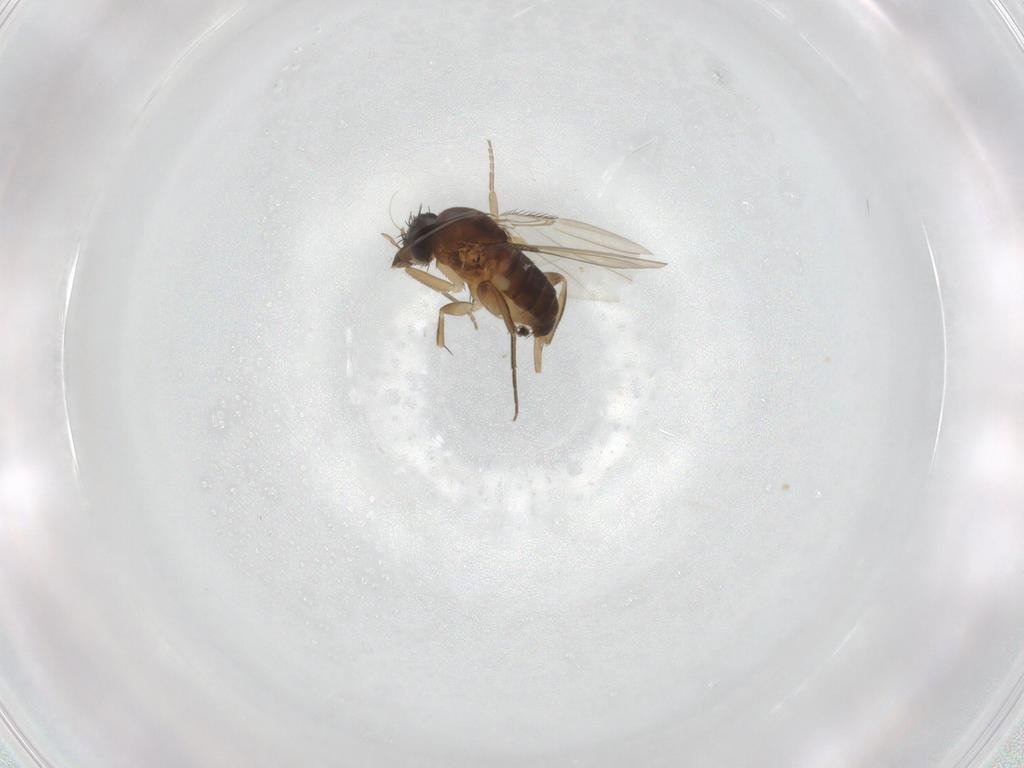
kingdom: Animalia
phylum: Arthropoda
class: Insecta
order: Diptera
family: Phoridae
